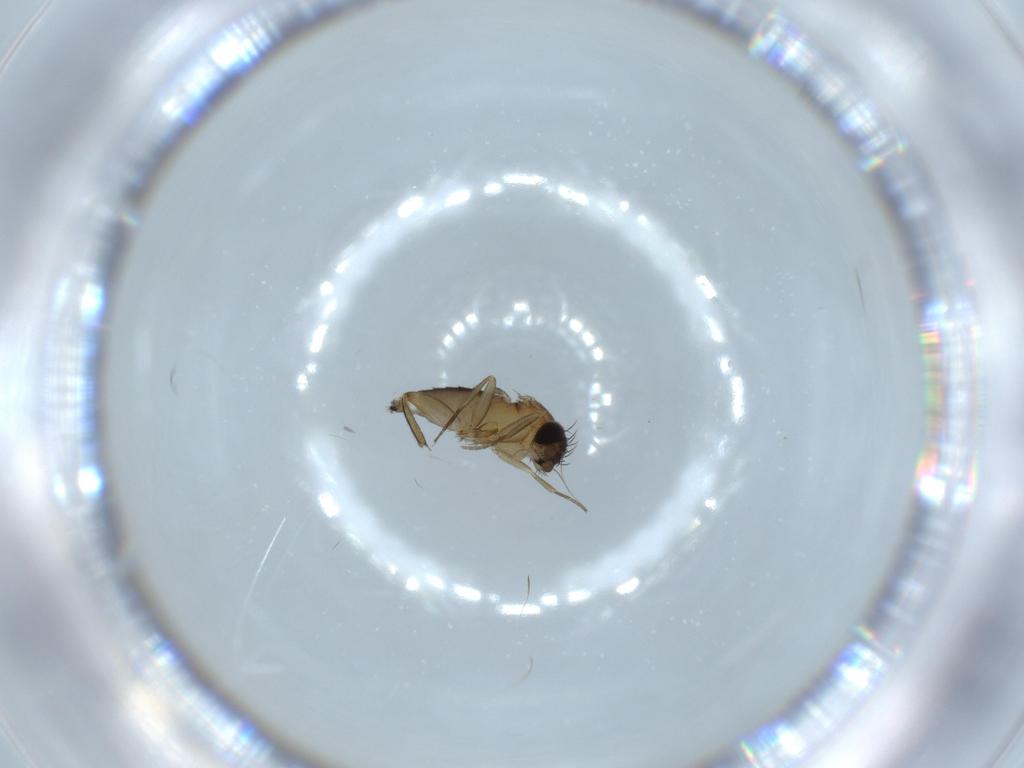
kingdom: Animalia
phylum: Arthropoda
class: Insecta
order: Diptera
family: Phoridae
